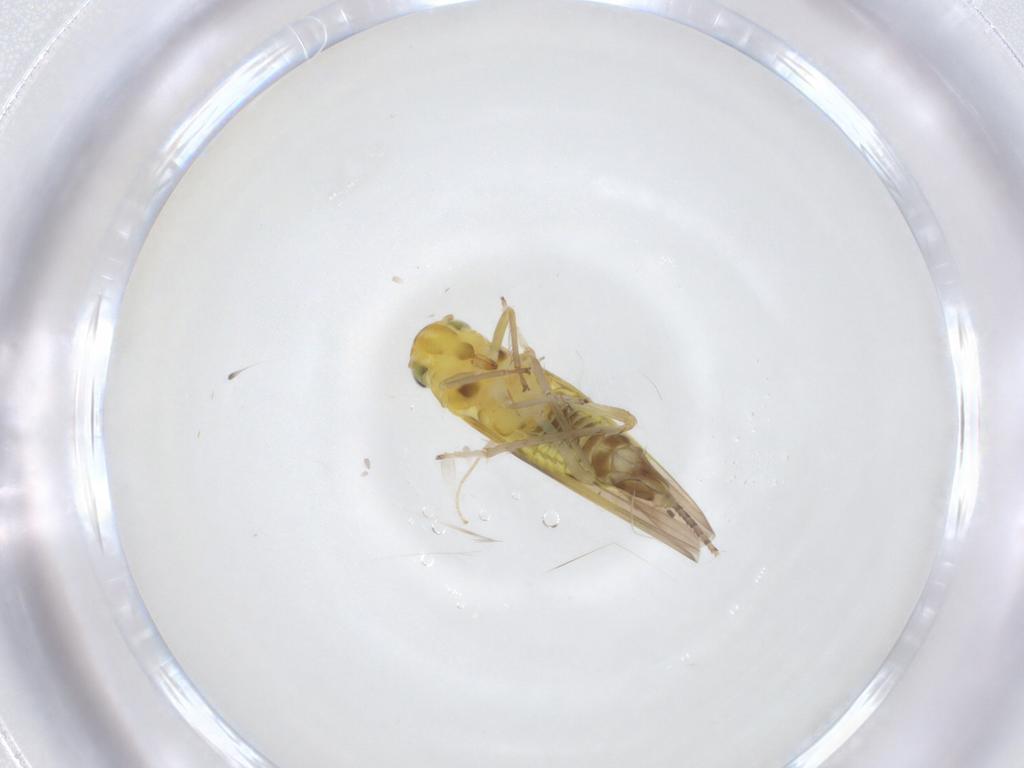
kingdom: Animalia
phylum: Arthropoda
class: Insecta
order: Hemiptera
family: Cicadellidae
